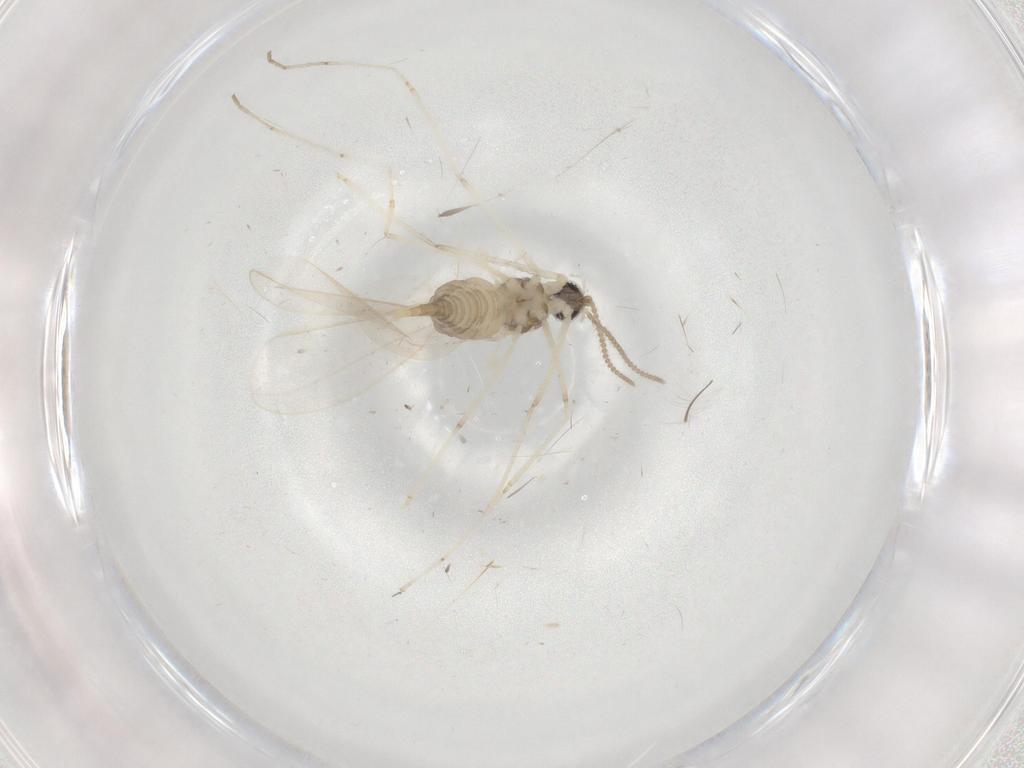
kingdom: Animalia
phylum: Arthropoda
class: Insecta
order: Diptera
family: Cecidomyiidae
